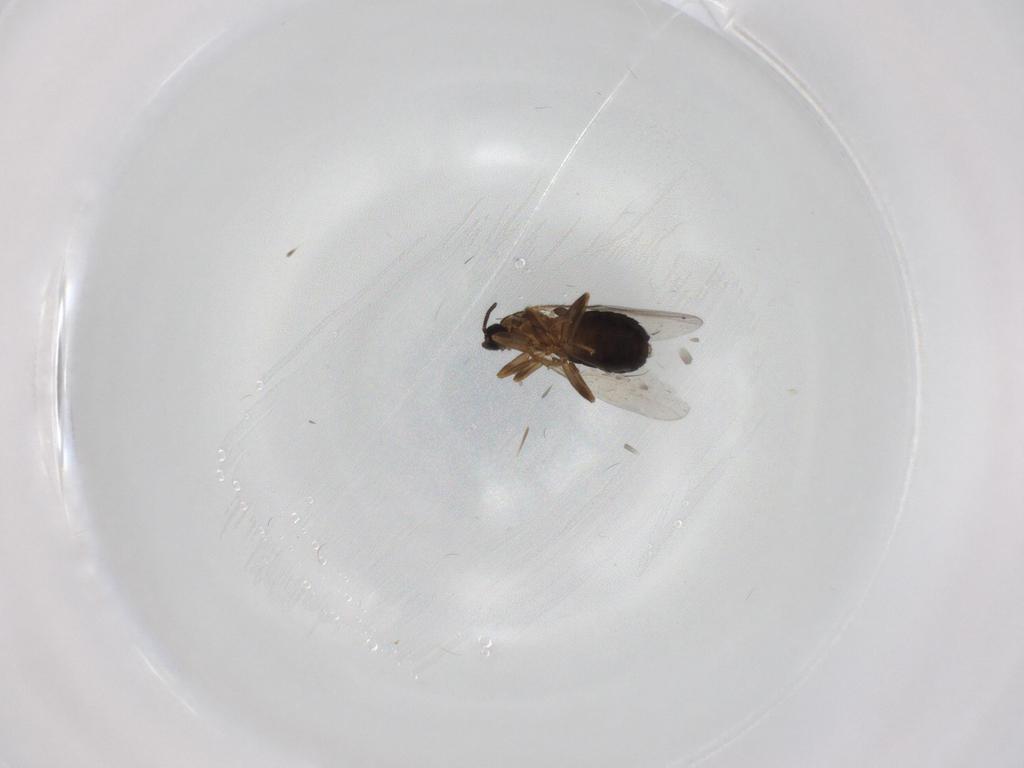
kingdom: Animalia
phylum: Arthropoda
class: Insecta
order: Diptera
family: Scatopsidae
